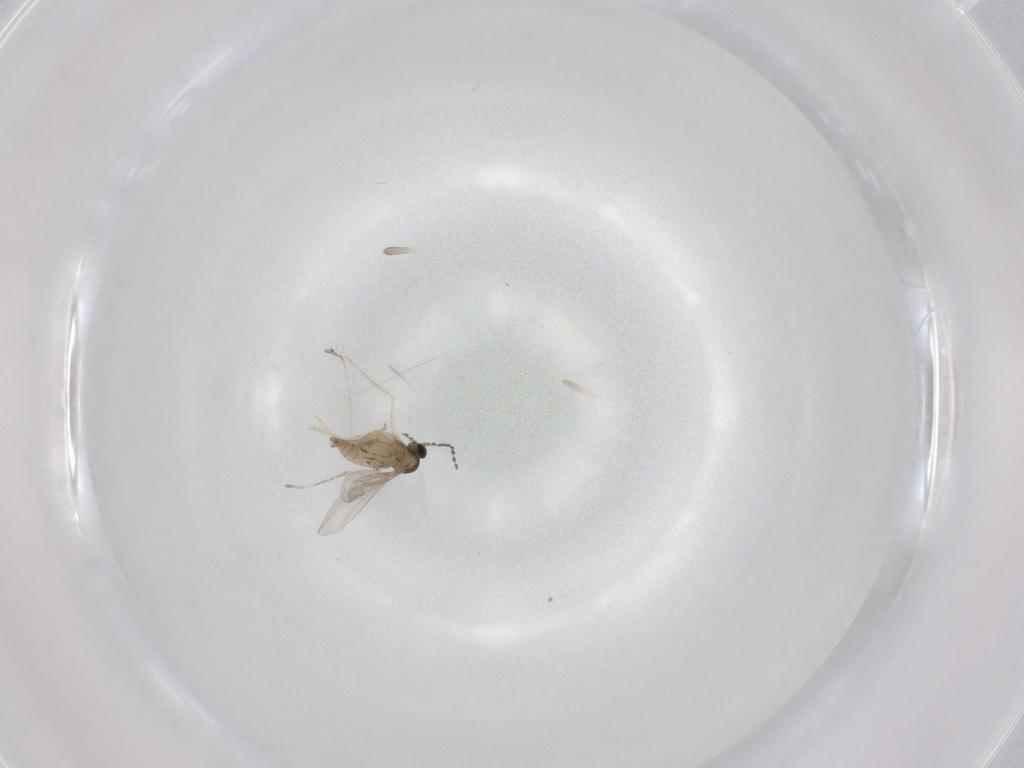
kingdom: Animalia
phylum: Arthropoda
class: Insecta
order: Diptera
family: Cecidomyiidae
